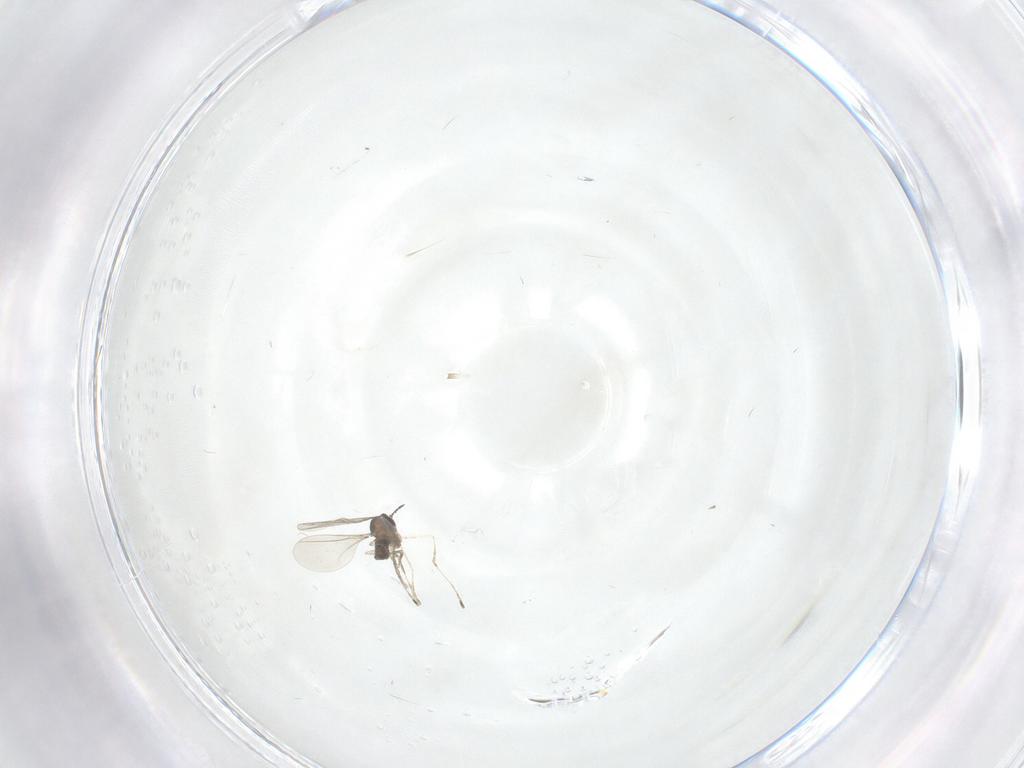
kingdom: Animalia
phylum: Arthropoda
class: Insecta
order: Diptera
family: Cecidomyiidae
